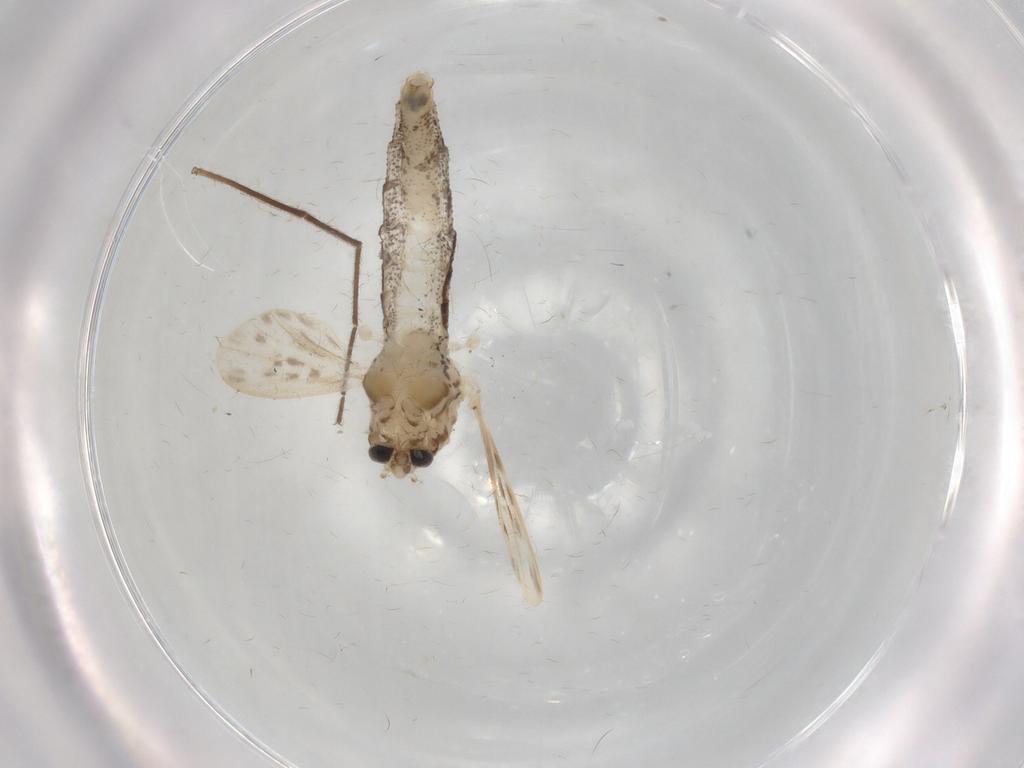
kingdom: Animalia
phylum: Arthropoda
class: Insecta
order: Diptera
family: Chaoboridae
